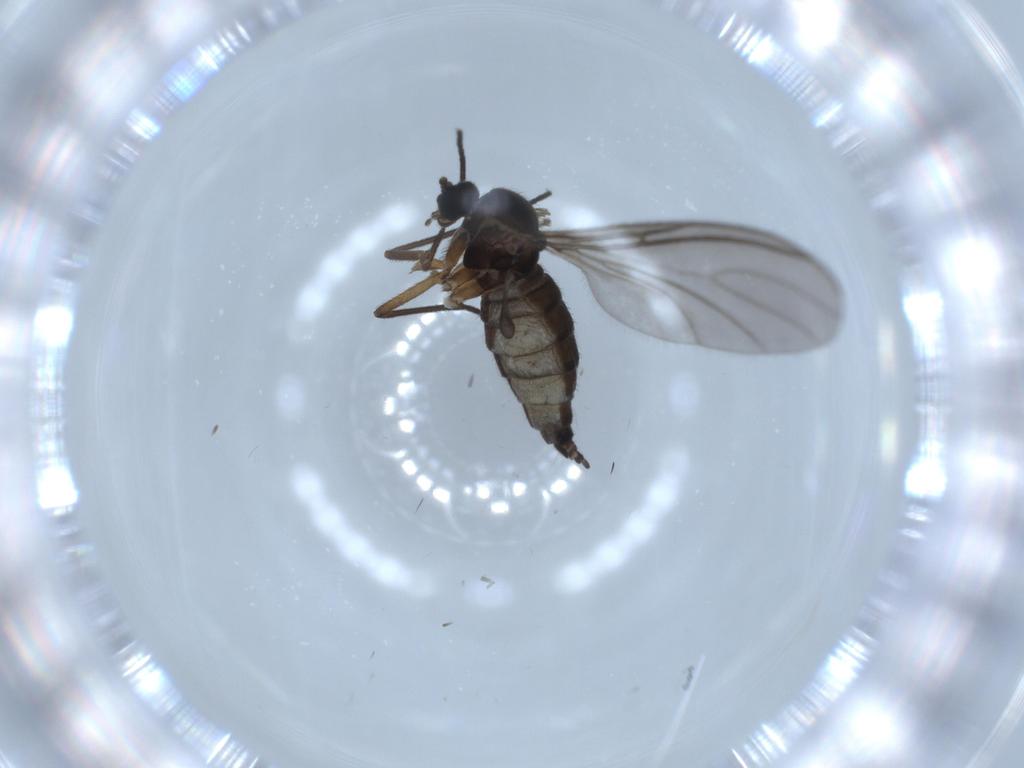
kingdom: Animalia
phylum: Arthropoda
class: Insecta
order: Diptera
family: Sciaridae
